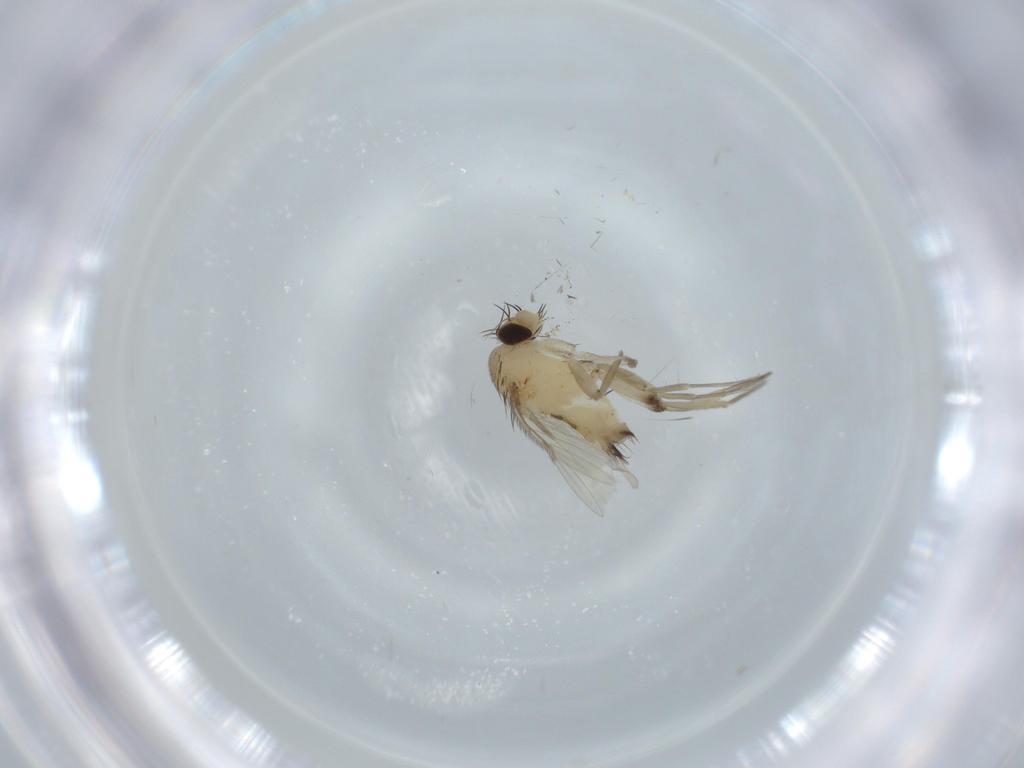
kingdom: Animalia
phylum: Arthropoda
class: Insecta
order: Diptera
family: Phoridae
